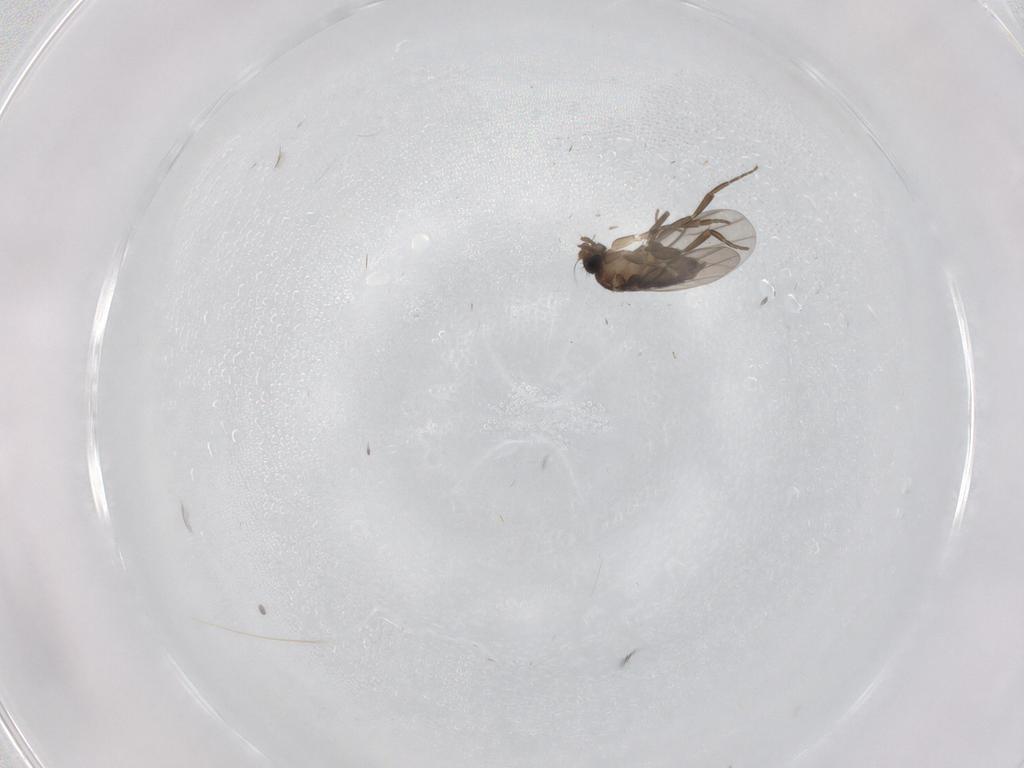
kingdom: Animalia
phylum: Arthropoda
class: Insecta
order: Diptera
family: Phoridae
